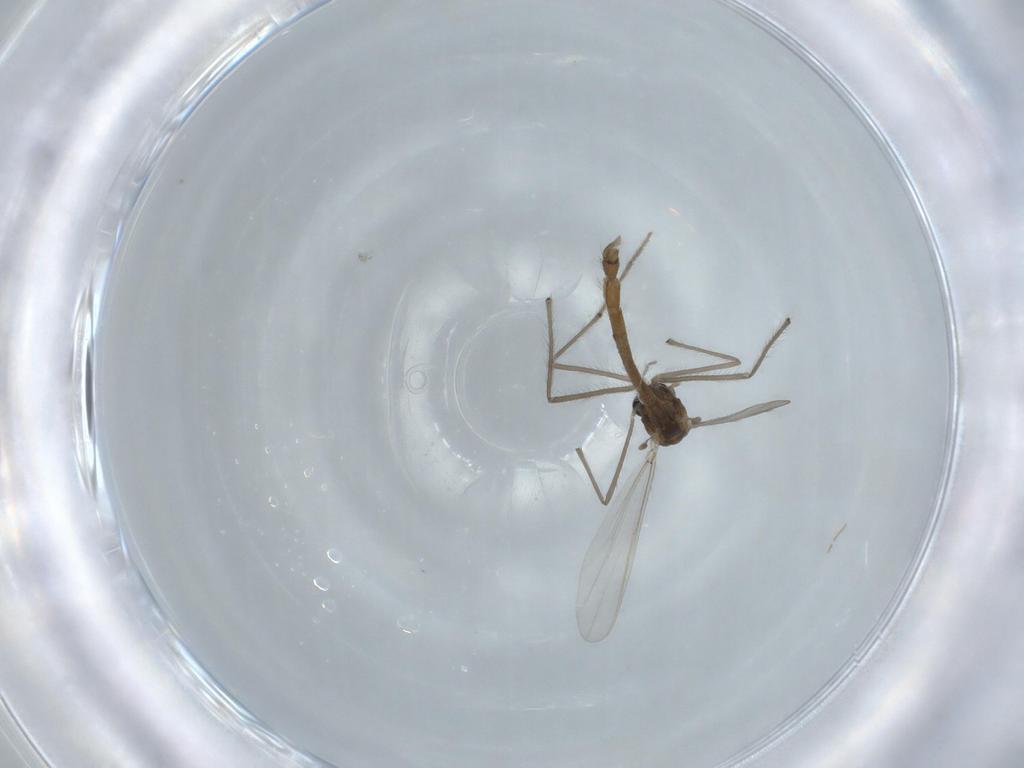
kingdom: Animalia
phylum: Arthropoda
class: Insecta
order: Diptera
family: Chironomidae
